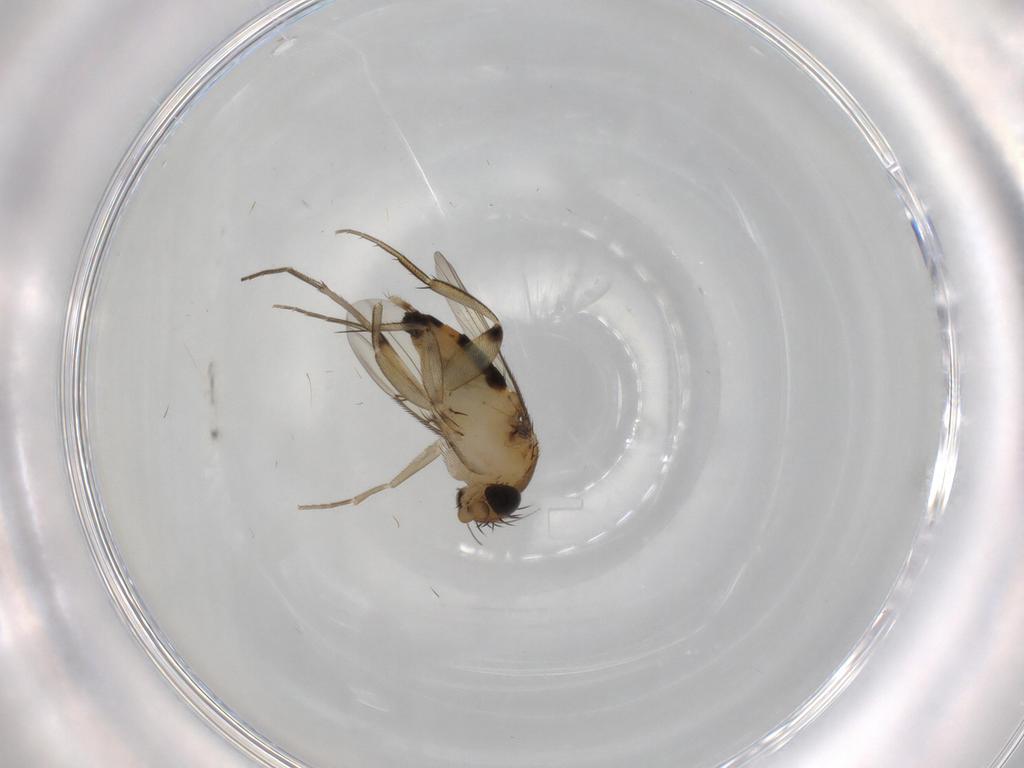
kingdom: Animalia
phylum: Arthropoda
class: Insecta
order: Diptera
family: Phoridae
